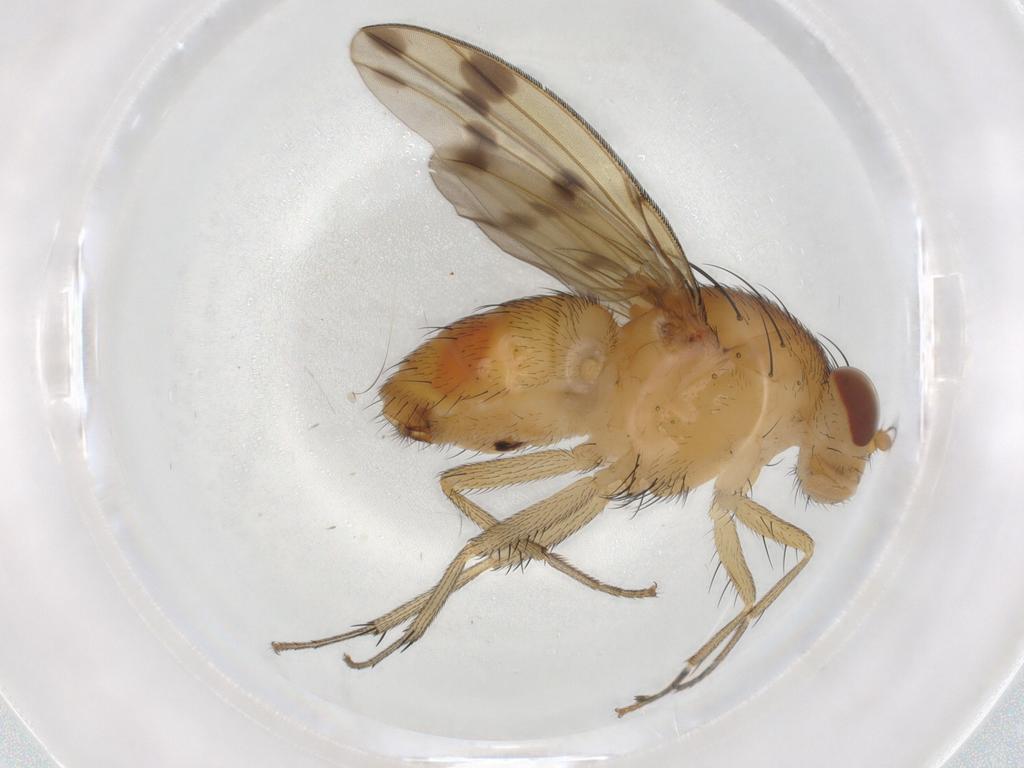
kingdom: Animalia
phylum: Arthropoda
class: Insecta
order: Diptera
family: Lauxaniidae
